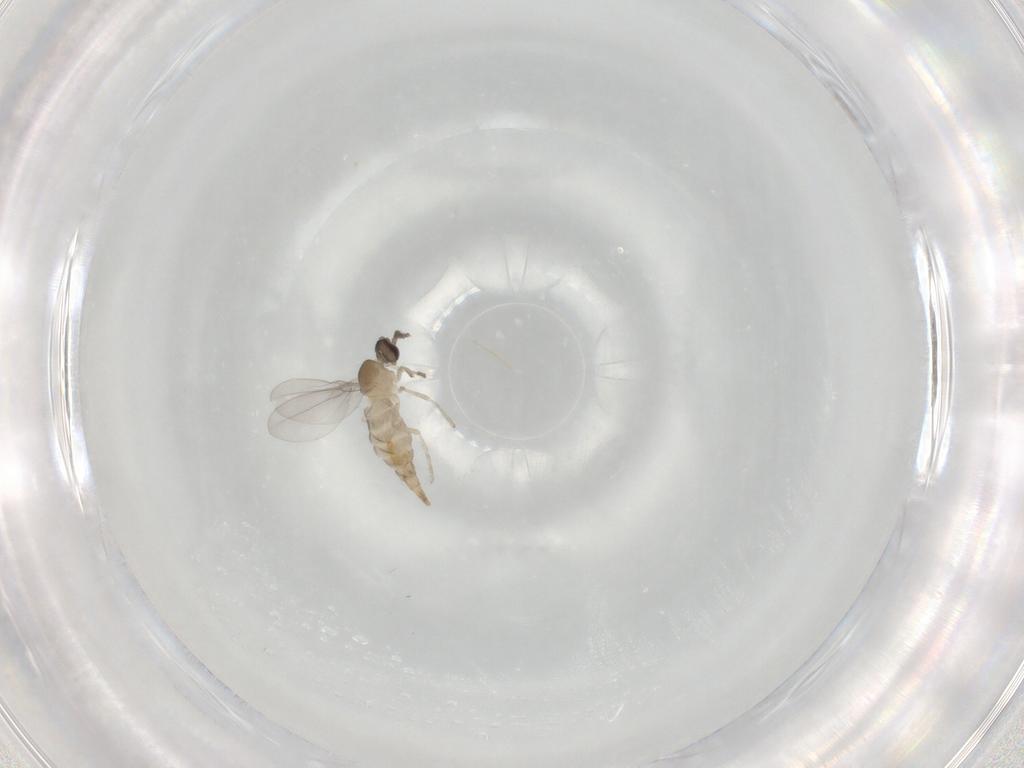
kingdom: Animalia
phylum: Arthropoda
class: Insecta
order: Diptera
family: Cecidomyiidae
